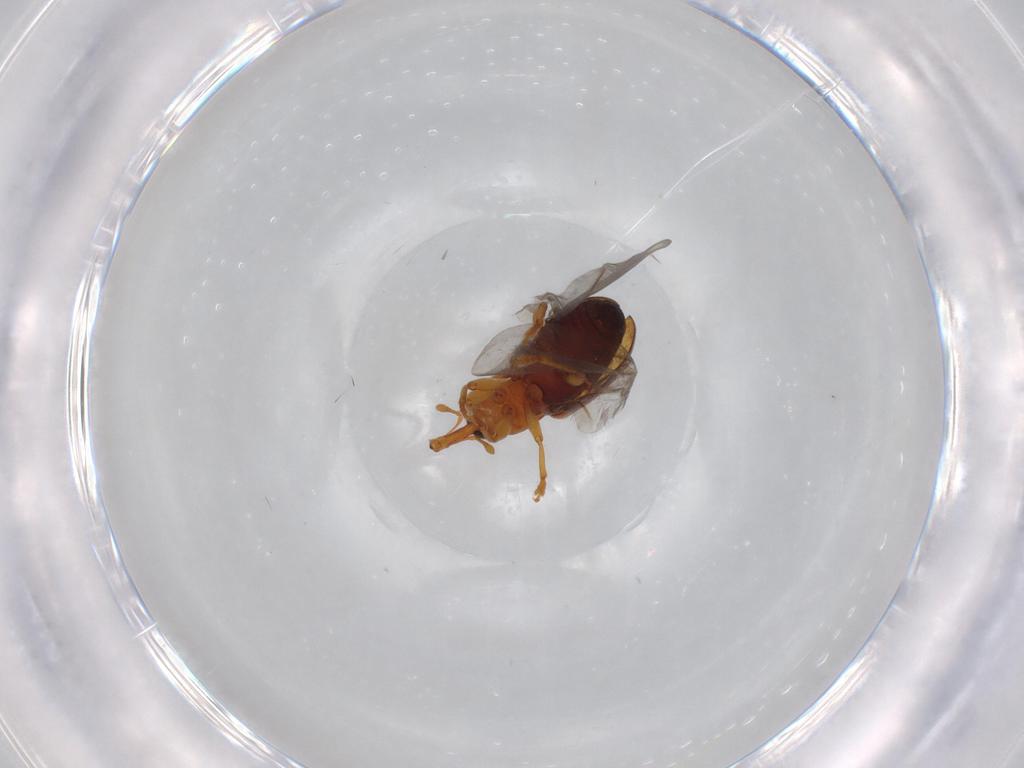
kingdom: Animalia
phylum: Arthropoda
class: Insecta
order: Coleoptera
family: Curculionidae
